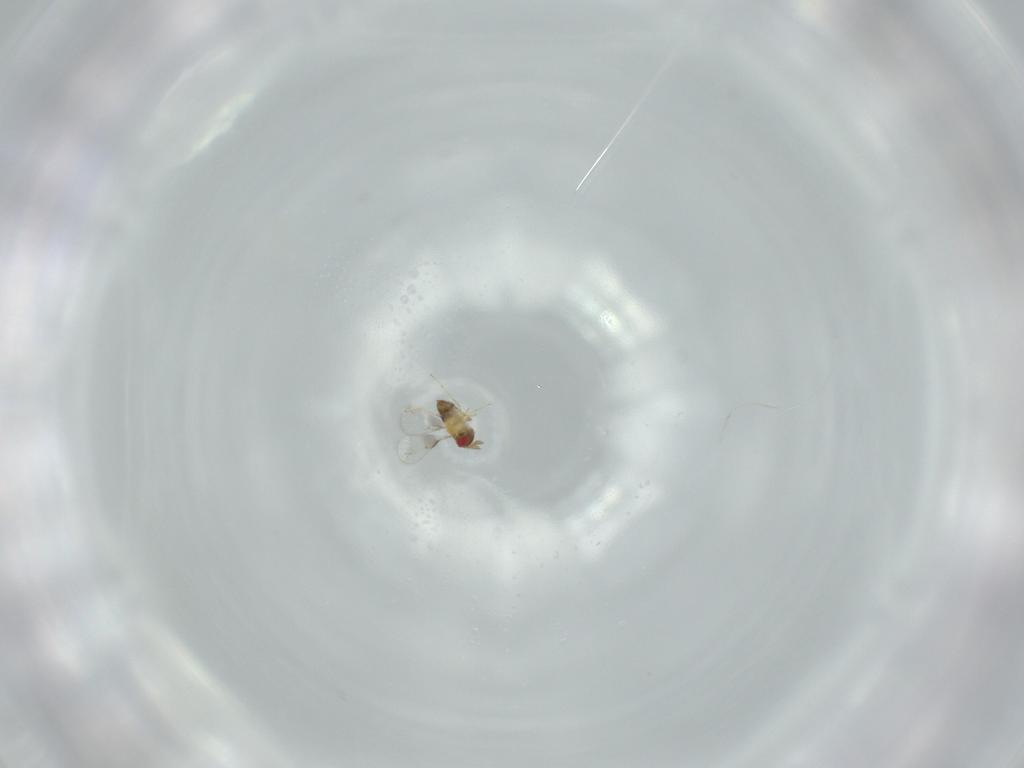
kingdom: Animalia
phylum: Arthropoda
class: Insecta
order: Hymenoptera
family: Trichogrammatidae
